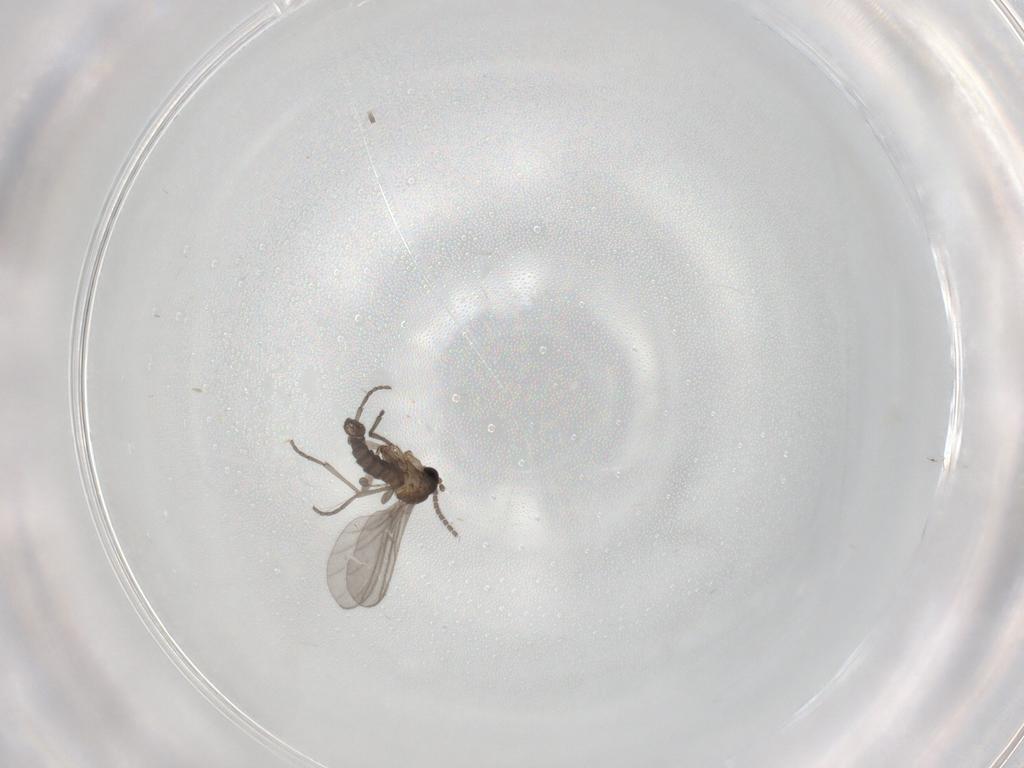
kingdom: Animalia
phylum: Arthropoda
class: Insecta
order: Diptera
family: Sciaridae
